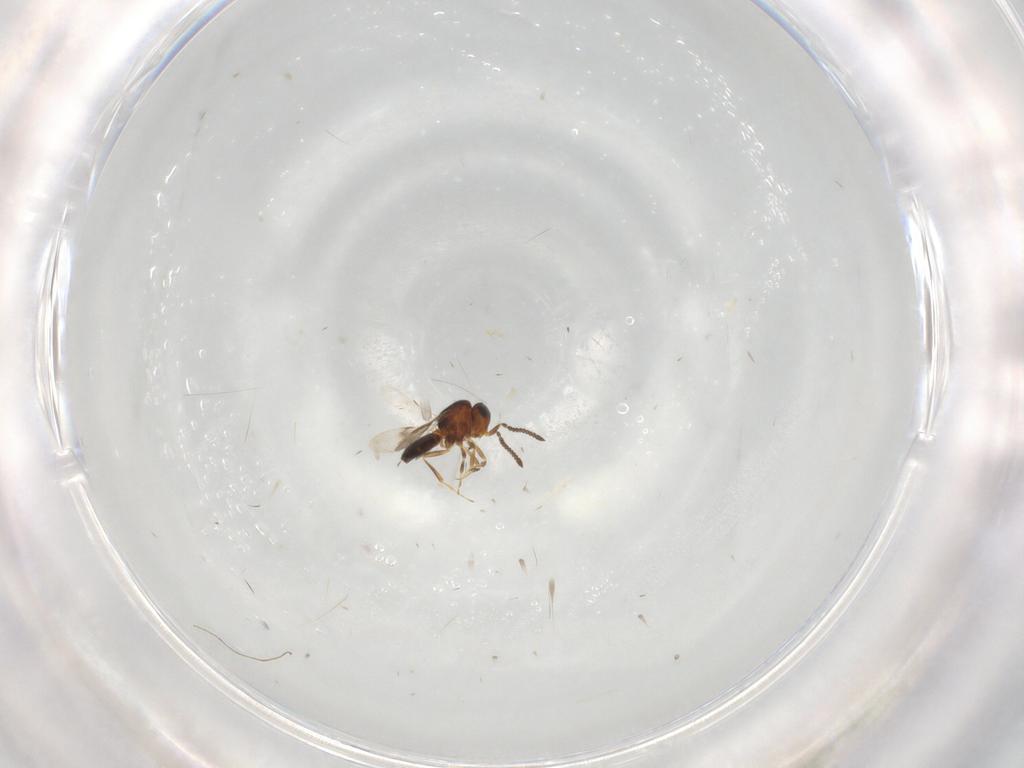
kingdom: Animalia
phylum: Arthropoda
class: Insecta
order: Hymenoptera
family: Scelionidae
